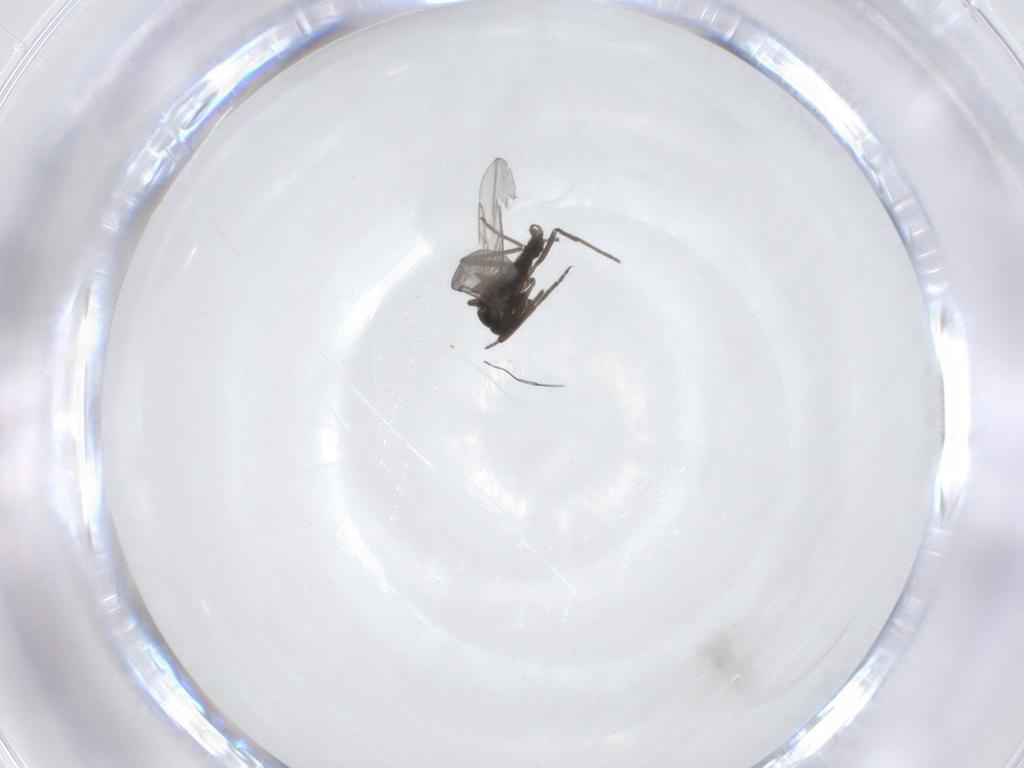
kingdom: Animalia
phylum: Arthropoda
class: Insecta
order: Diptera
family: Cecidomyiidae
